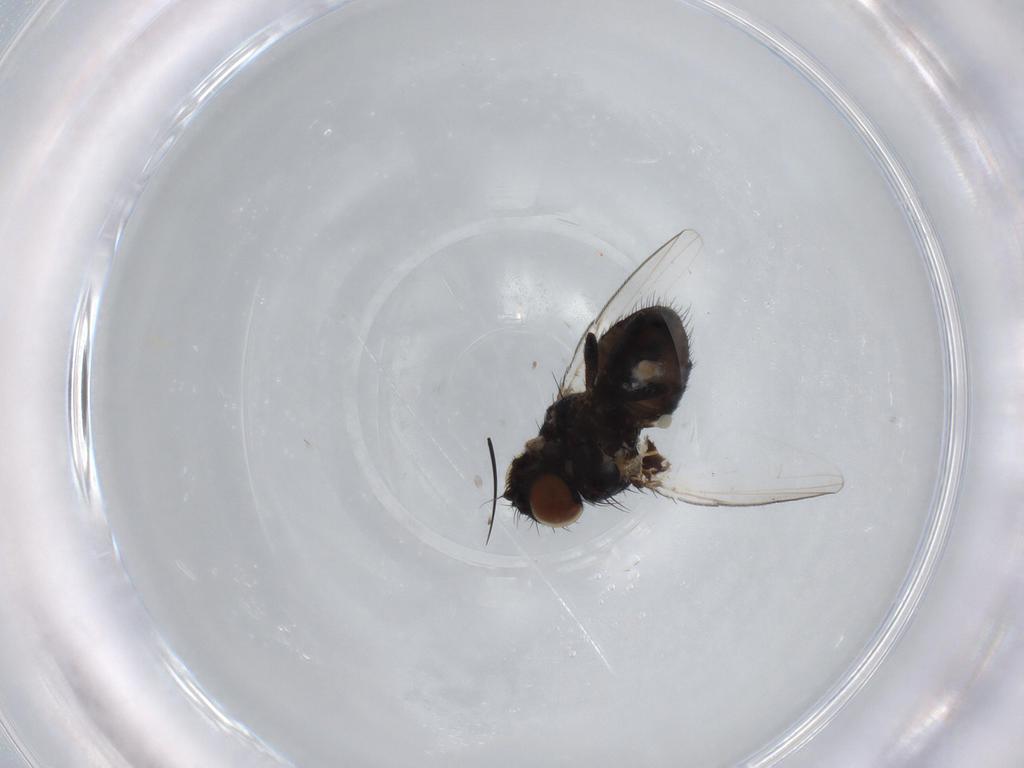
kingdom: Animalia
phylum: Arthropoda
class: Insecta
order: Diptera
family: Milichiidae
